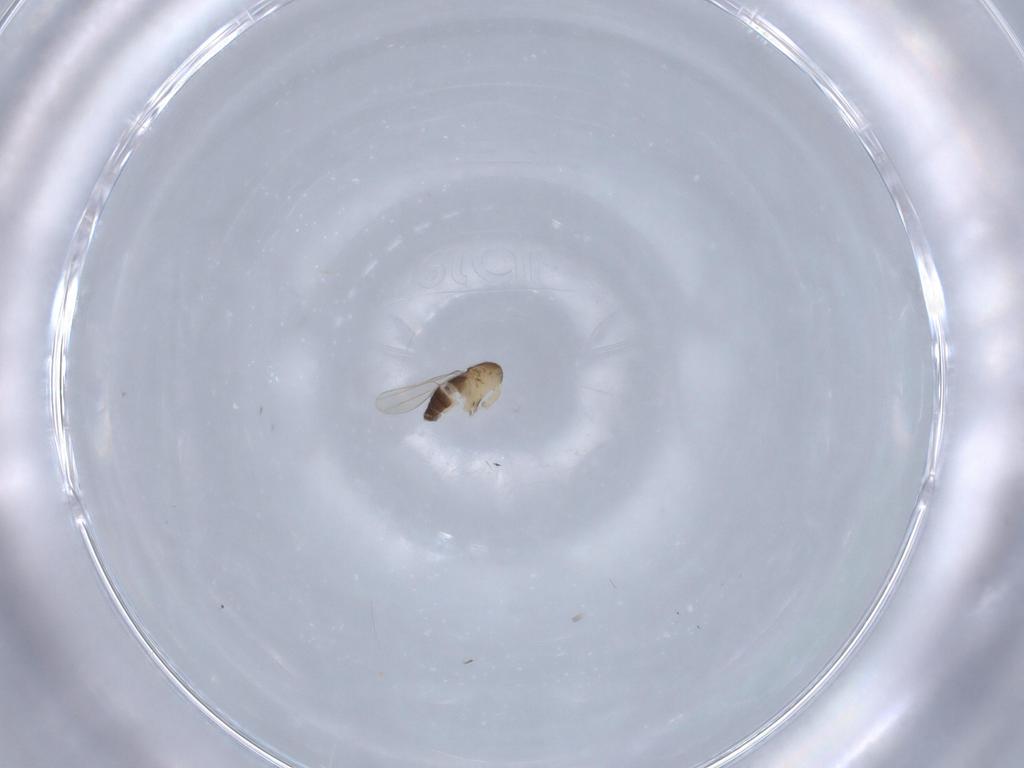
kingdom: Animalia
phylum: Arthropoda
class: Insecta
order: Diptera
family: Phoridae
